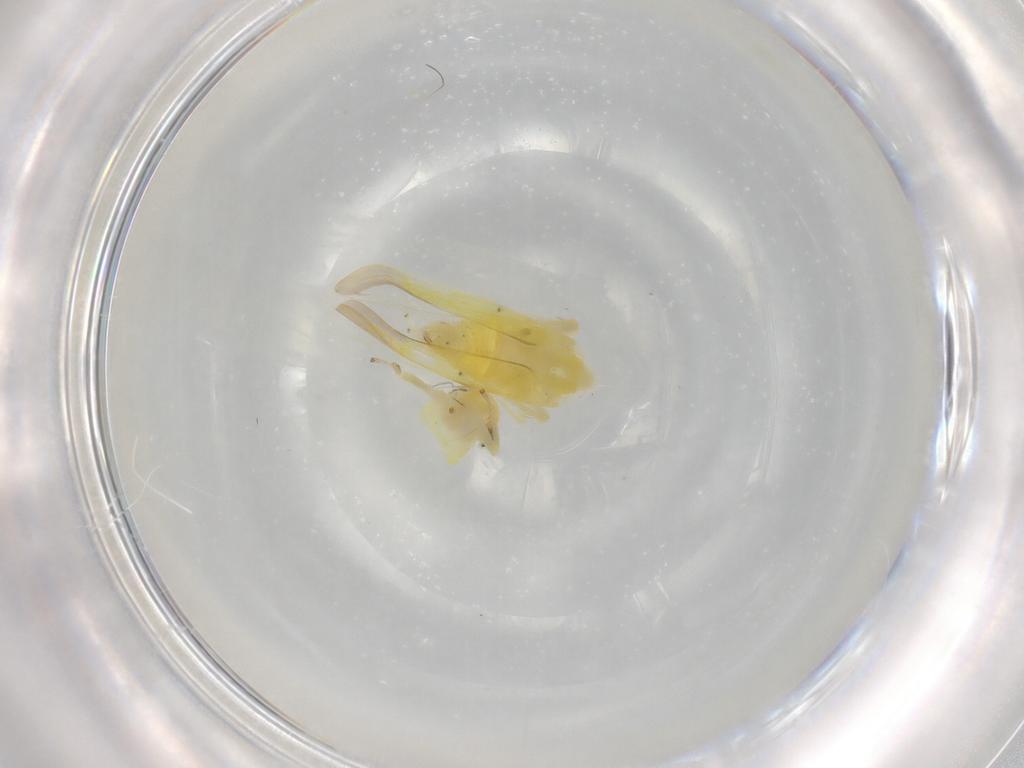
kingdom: Animalia
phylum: Arthropoda
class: Insecta
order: Hemiptera
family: Cicadellidae
